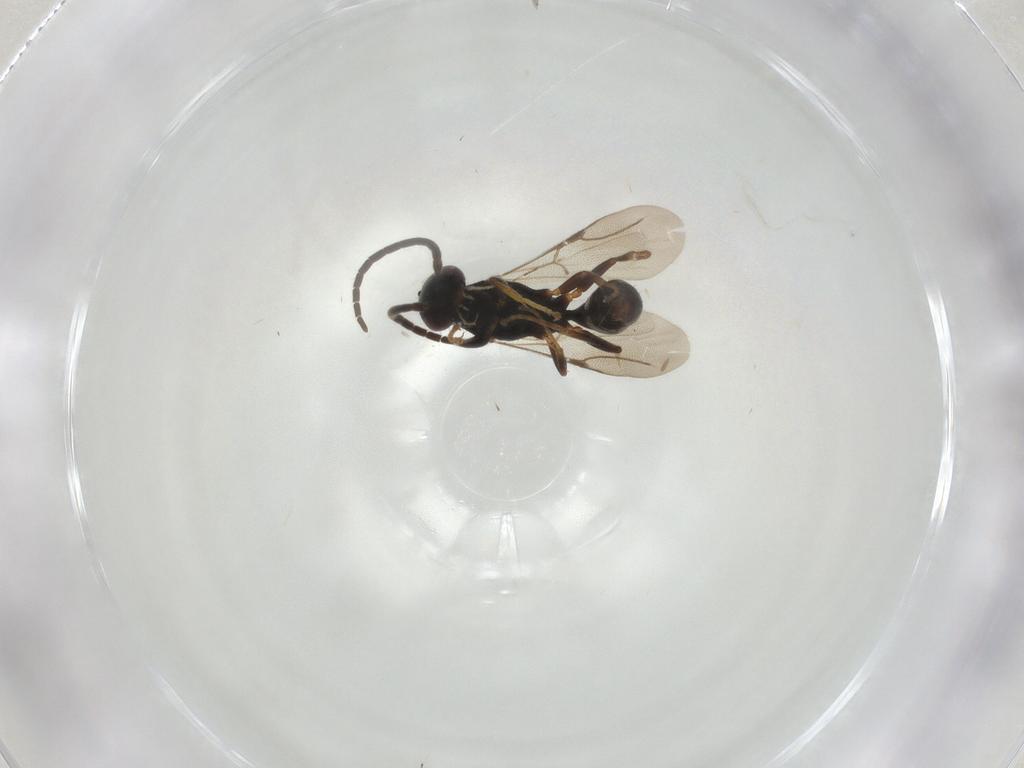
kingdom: Animalia
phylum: Arthropoda
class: Insecta
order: Hymenoptera
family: Bethylidae
